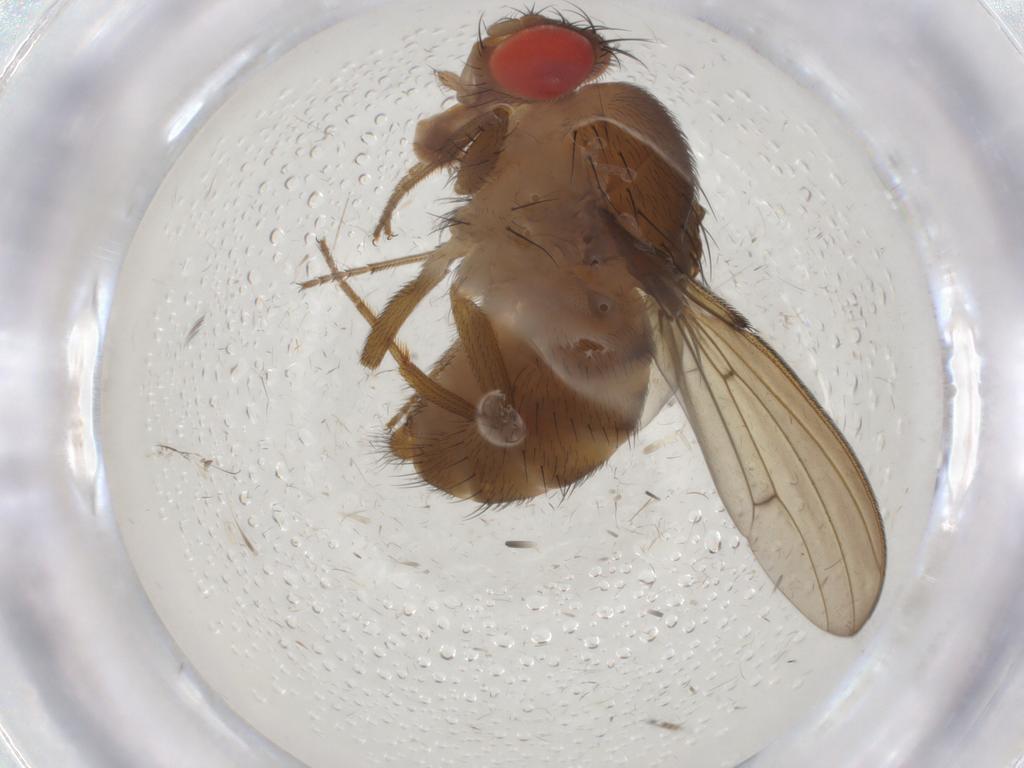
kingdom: Animalia
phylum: Arthropoda
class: Insecta
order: Diptera
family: Drosophilidae
